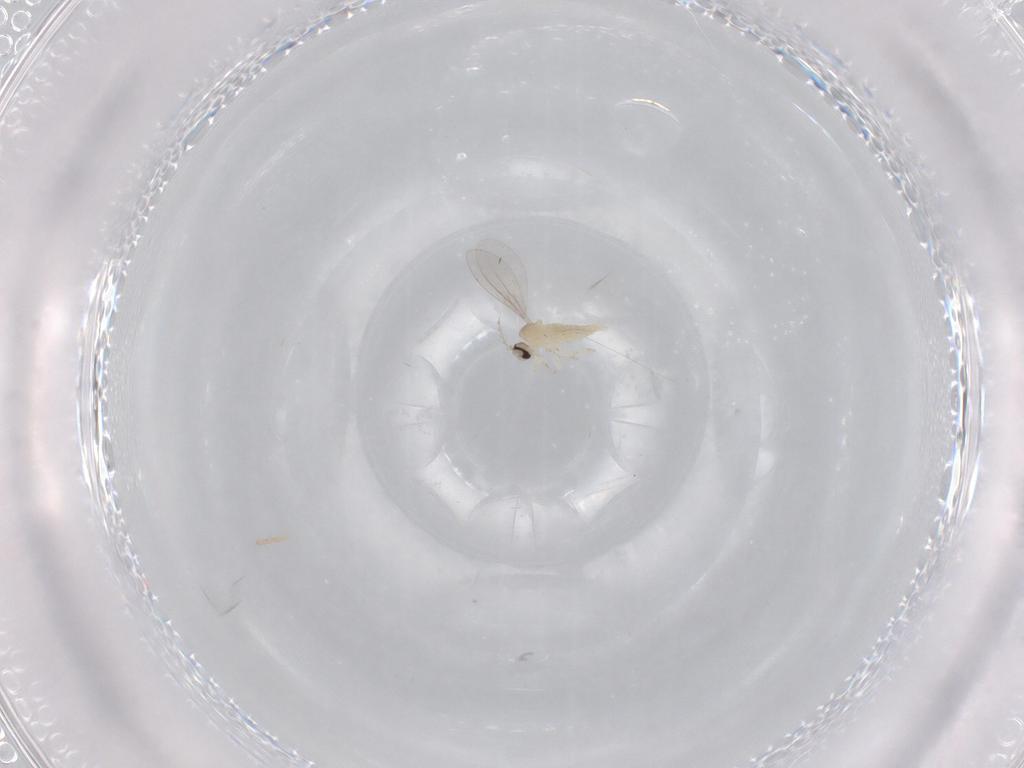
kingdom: Animalia
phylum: Arthropoda
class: Insecta
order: Diptera
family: Cecidomyiidae
